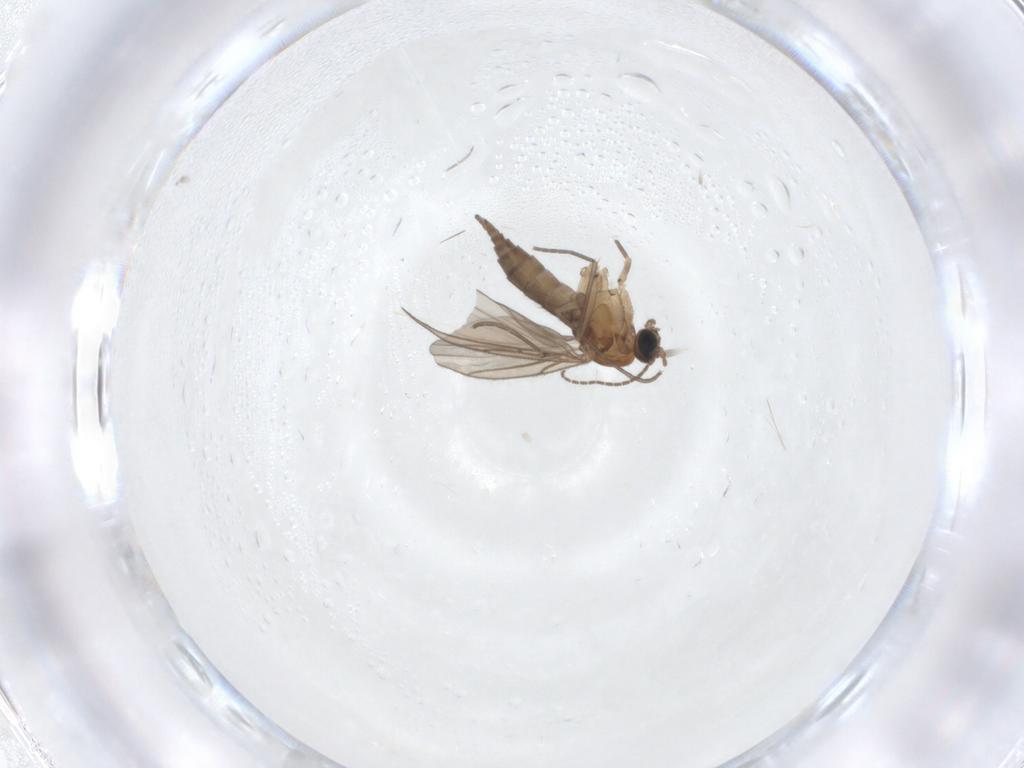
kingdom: Animalia
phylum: Arthropoda
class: Insecta
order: Diptera
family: Sciaridae
